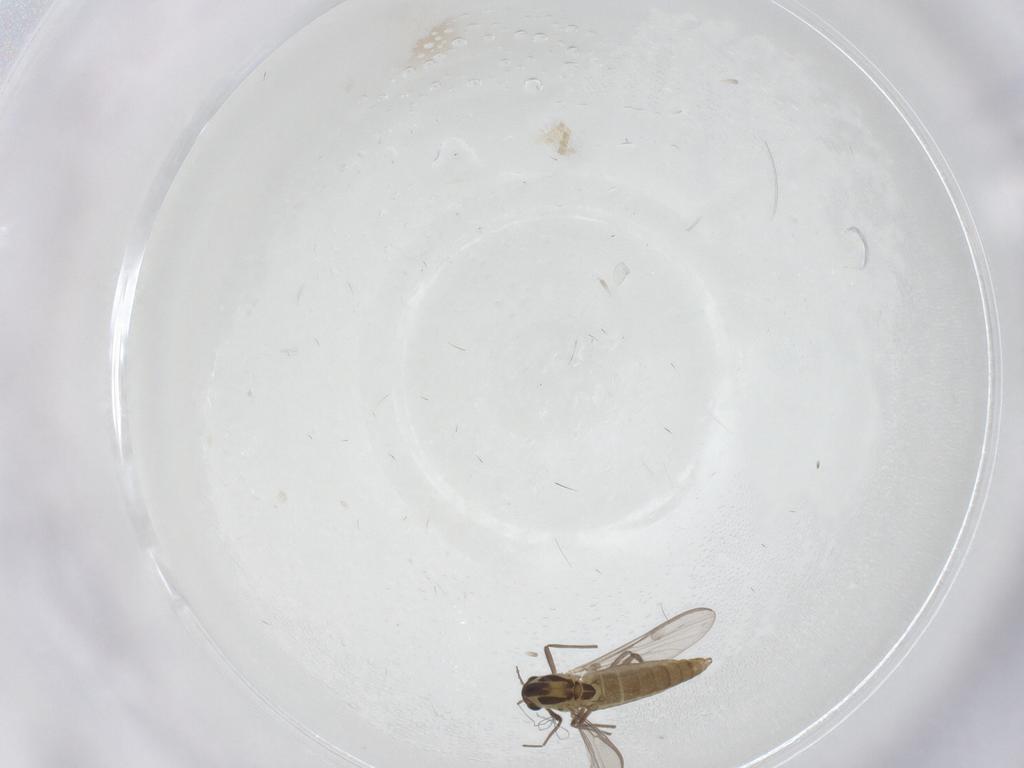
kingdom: Animalia
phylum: Arthropoda
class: Insecta
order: Diptera
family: Chironomidae
